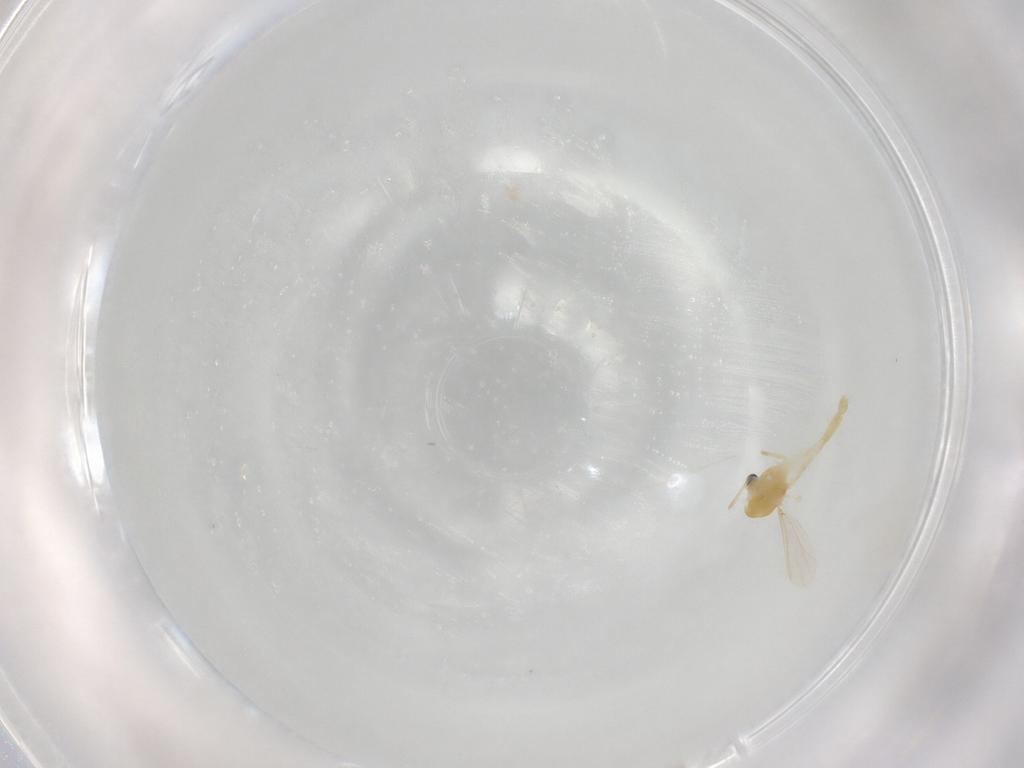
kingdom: Animalia
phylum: Arthropoda
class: Insecta
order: Diptera
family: Chironomidae
